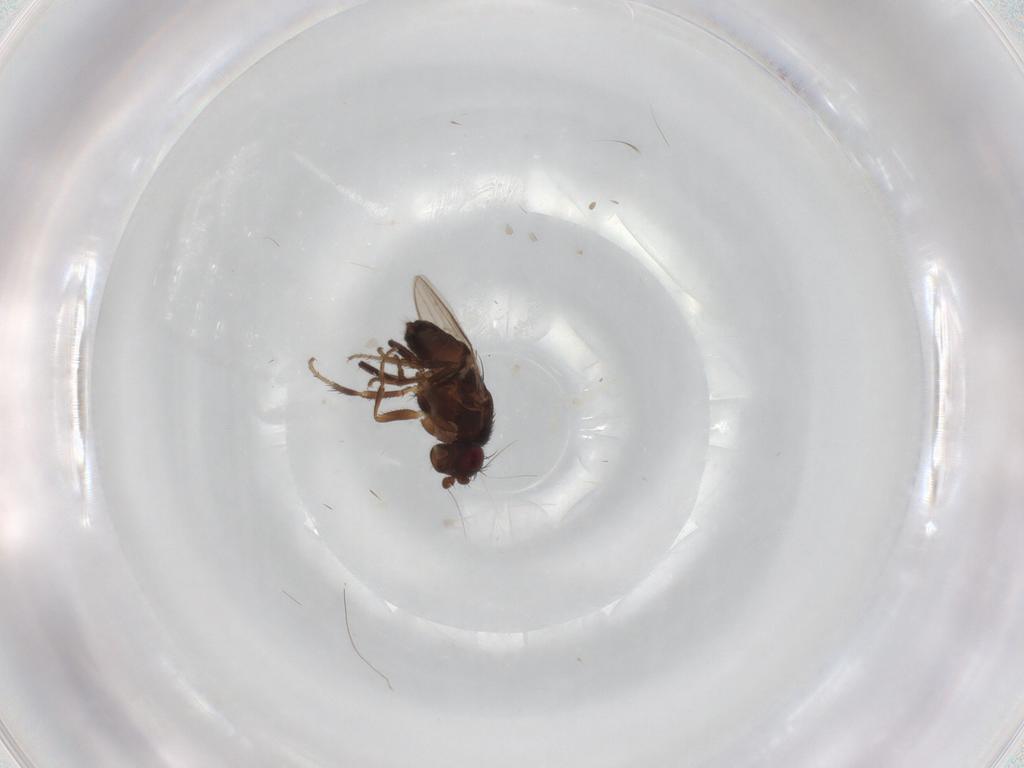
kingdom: Animalia
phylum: Arthropoda
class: Insecta
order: Diptera
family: Sphaeroceridae
